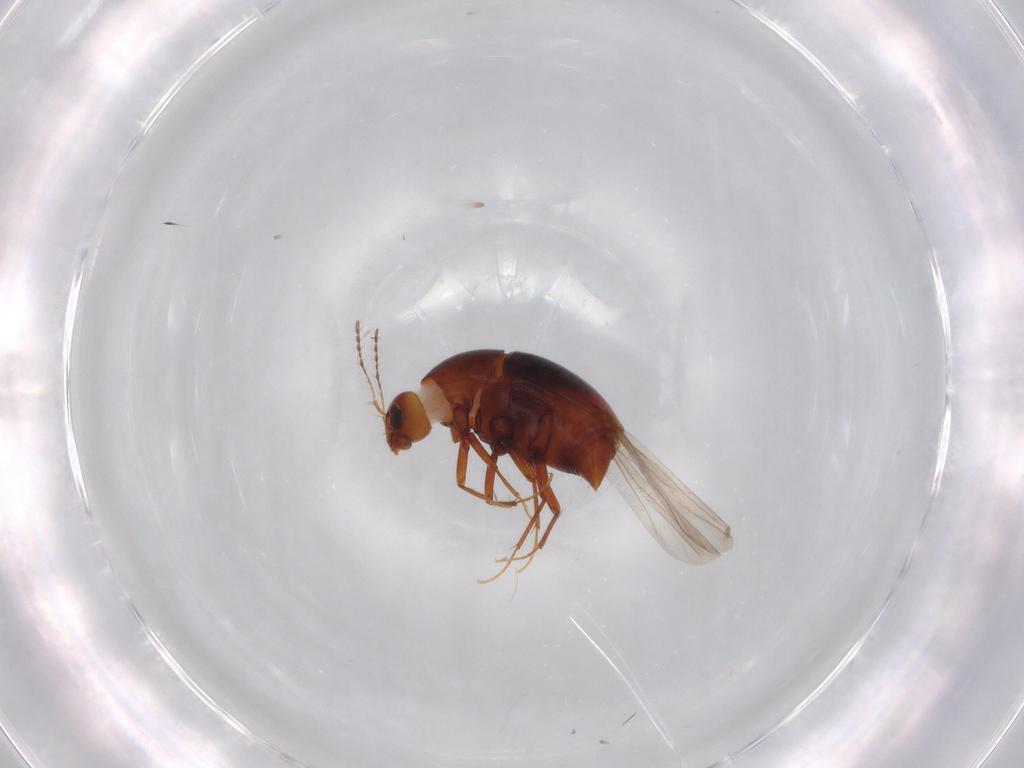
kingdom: Animalia
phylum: Arthropoda
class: Insecta
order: Coleoptera
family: Staphylinidae
